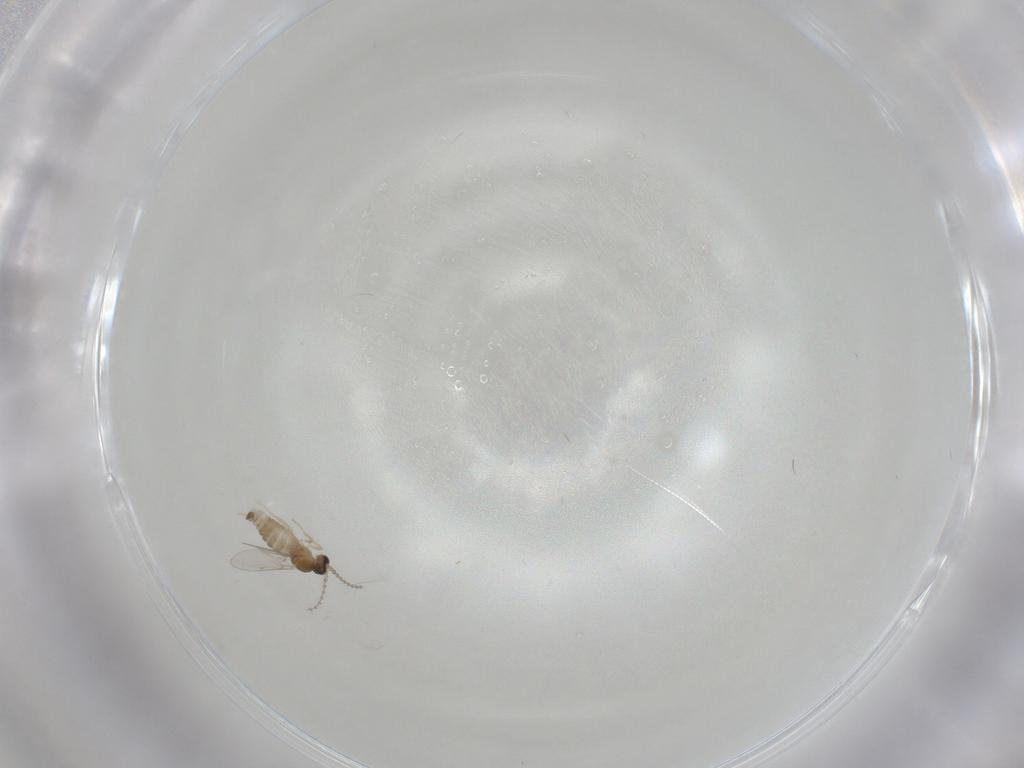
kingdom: Animalia
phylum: Arthropoda
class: Insecta
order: Diptera
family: Cecidomyiidae
